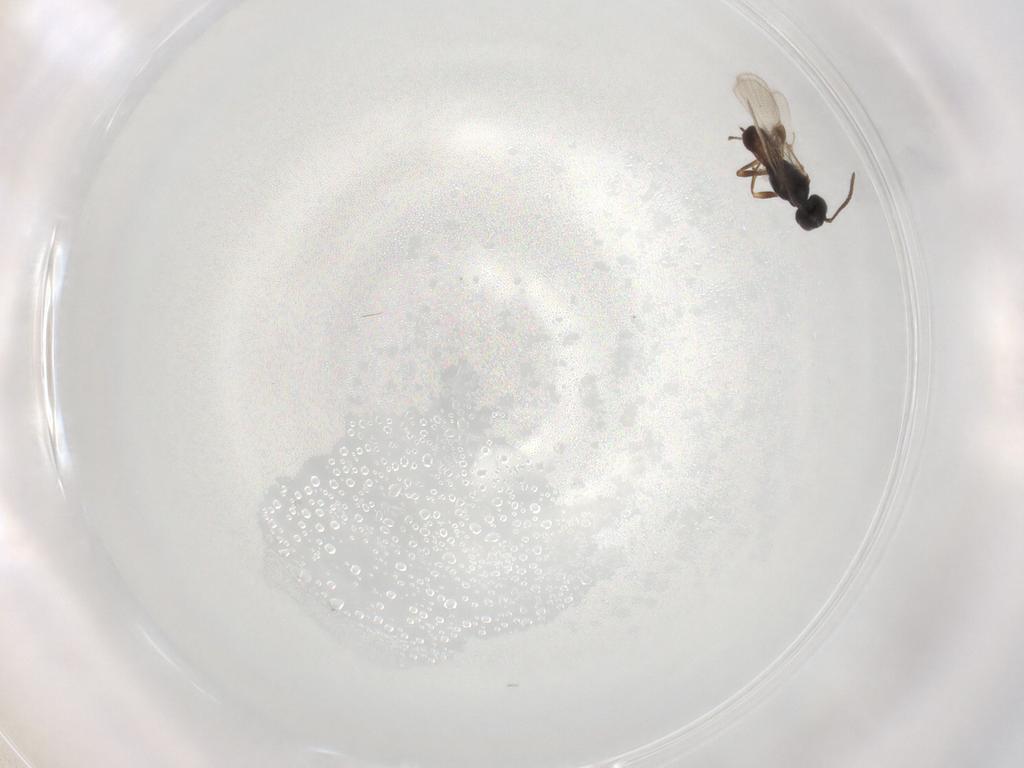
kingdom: Animalia
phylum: Arthropoda
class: Insecta
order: Hymenoptera
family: Braconidae
